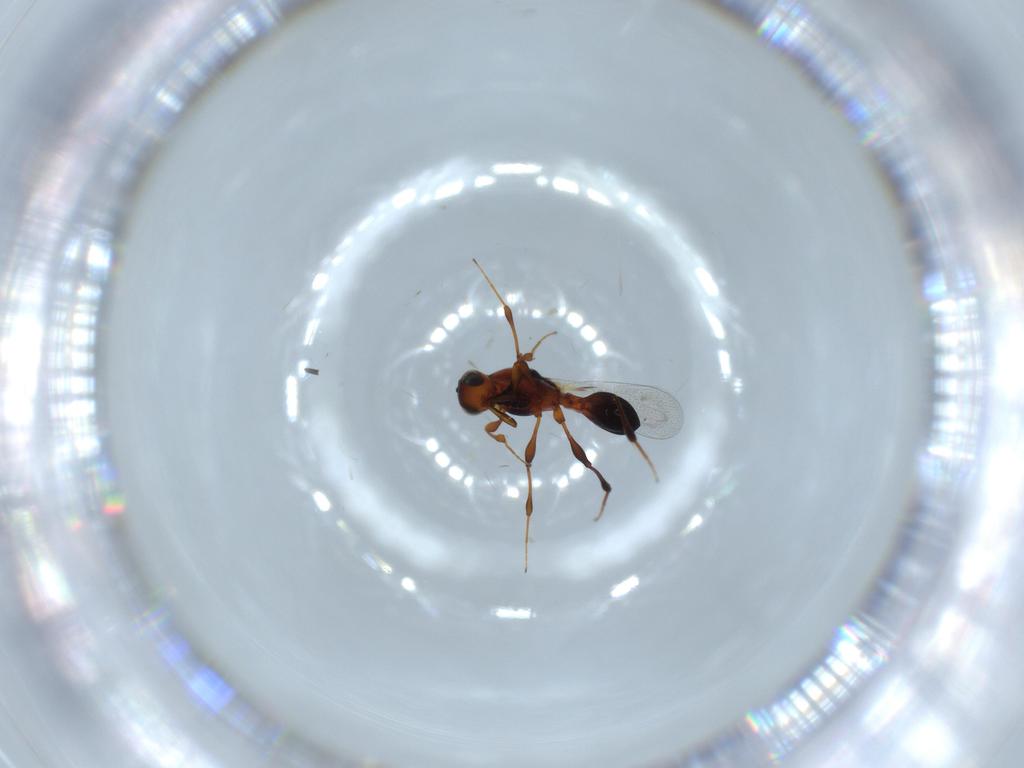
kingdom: Animalia
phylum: Arthropoda
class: Insecta
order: Hymenoptera
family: Platygastridae
